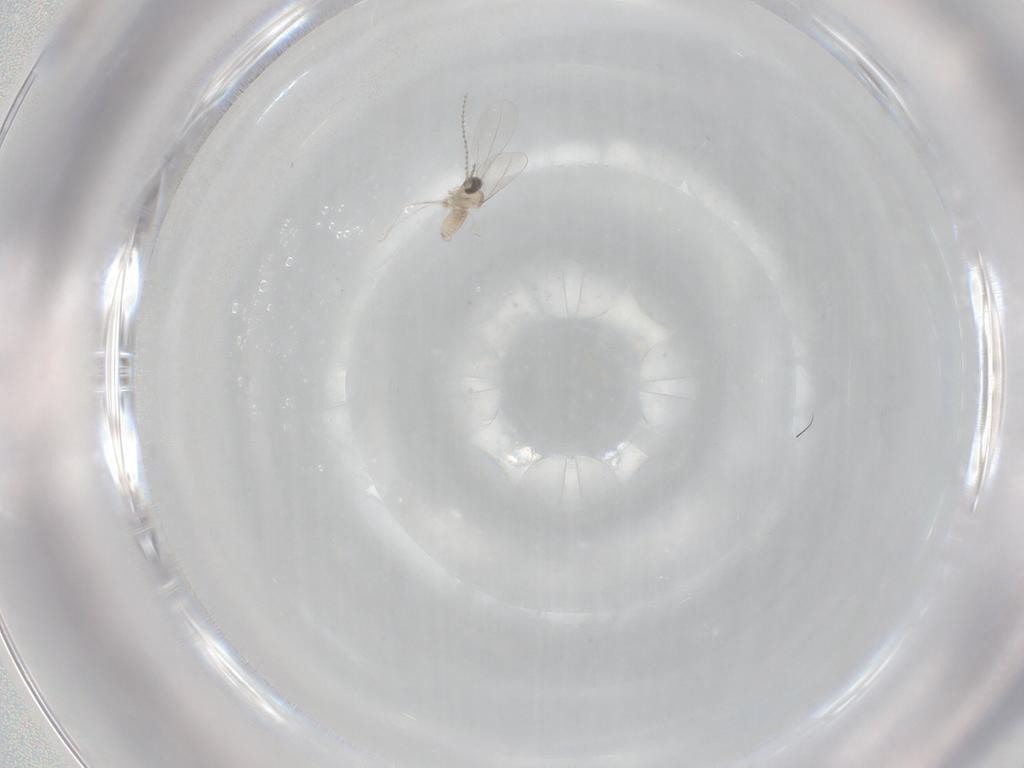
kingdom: Animalia
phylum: Arthropoda
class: Insecta
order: Diptera
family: Cecidomyiidae
